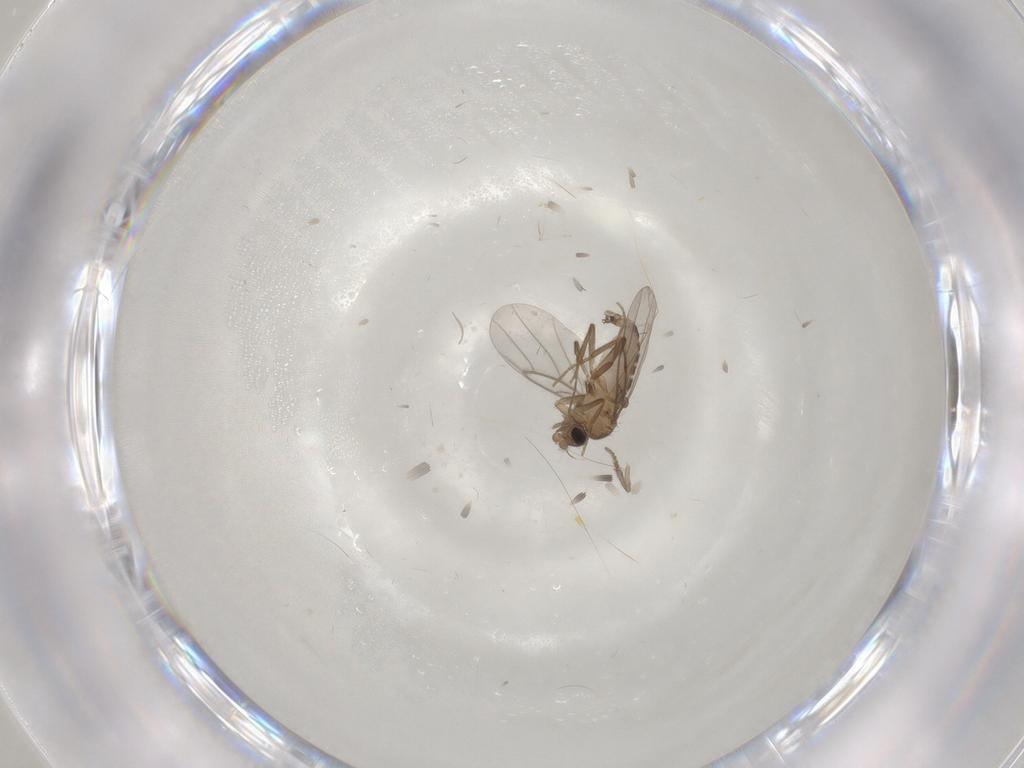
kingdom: Animalia
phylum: Arthropoda
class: Insecta
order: Diptera
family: Cecidomyiidae
